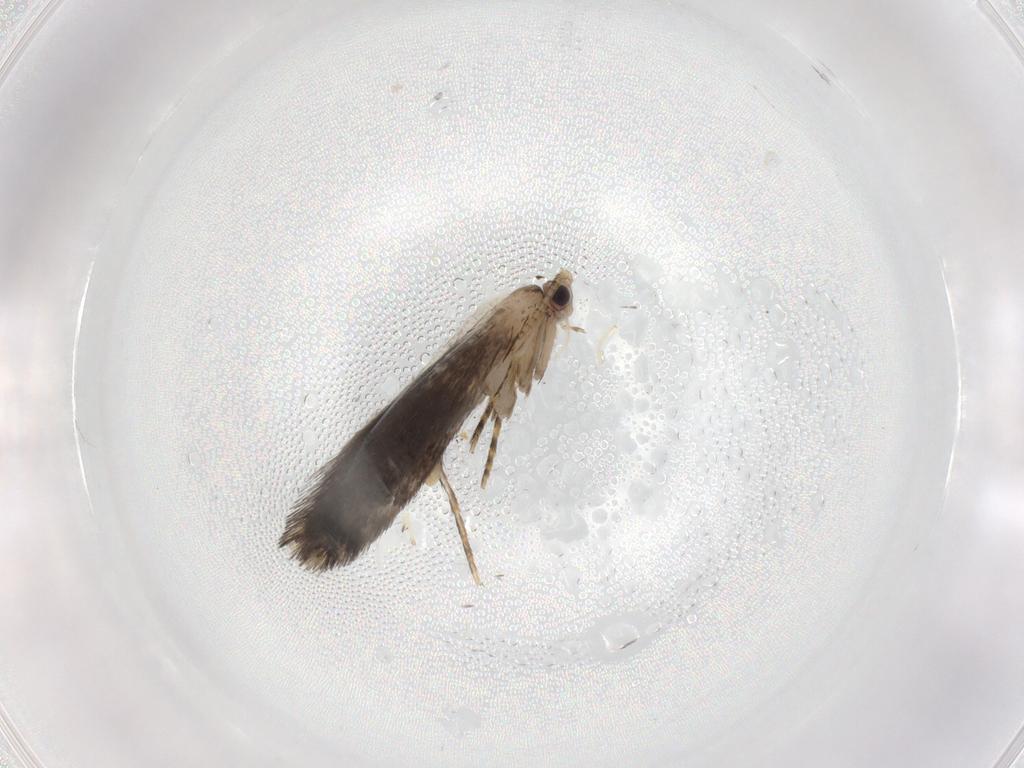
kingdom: Animalia
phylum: Arthropoda
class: Insecta
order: Lepidoptera
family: Tineidae
